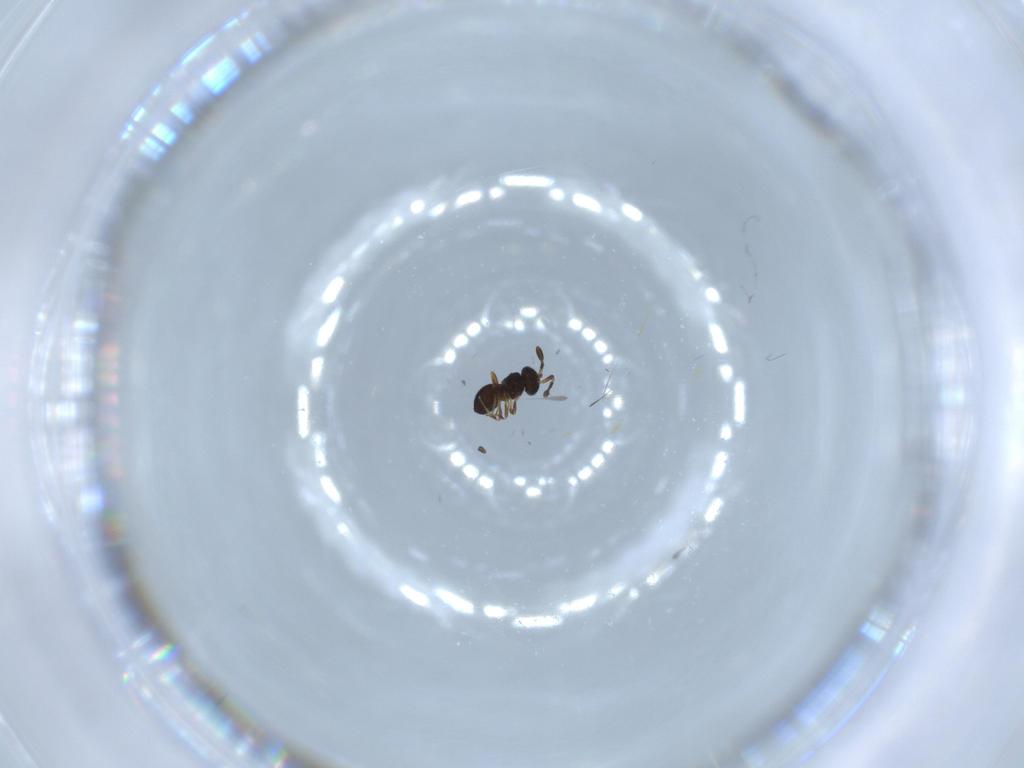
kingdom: Animalia
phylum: Arthropoda
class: Insecta
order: Hymenoptera
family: Scelionidae
